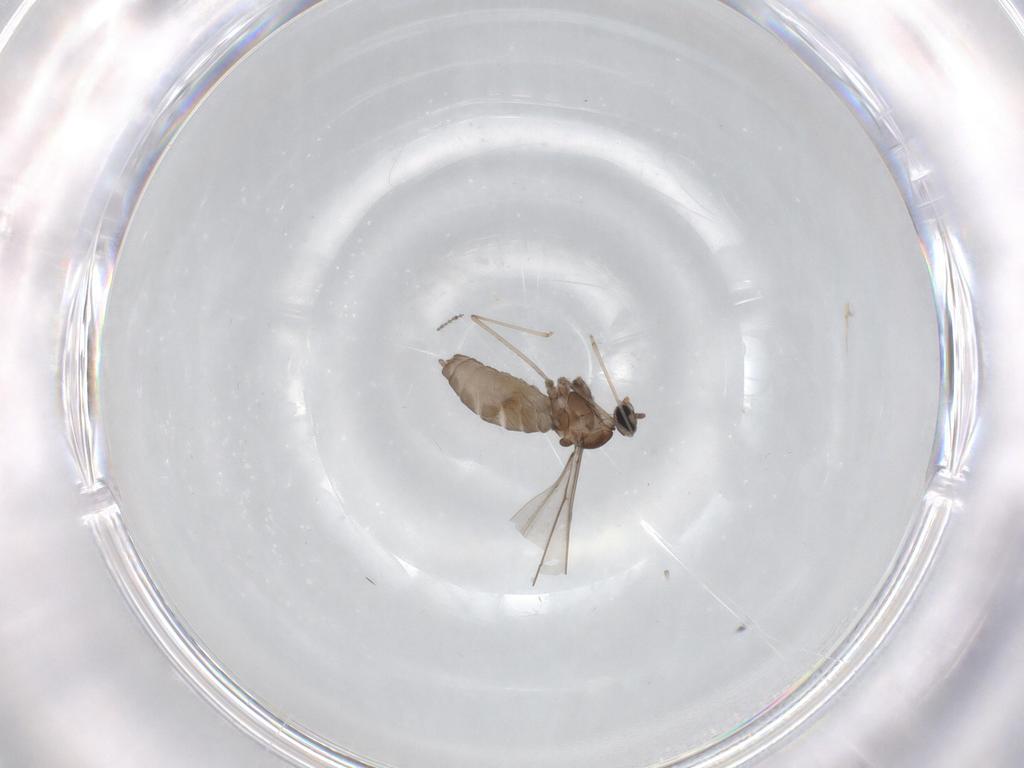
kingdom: Animalia
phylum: Arthropoda
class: Insecta
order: Diptera
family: Cecidomyiidae
